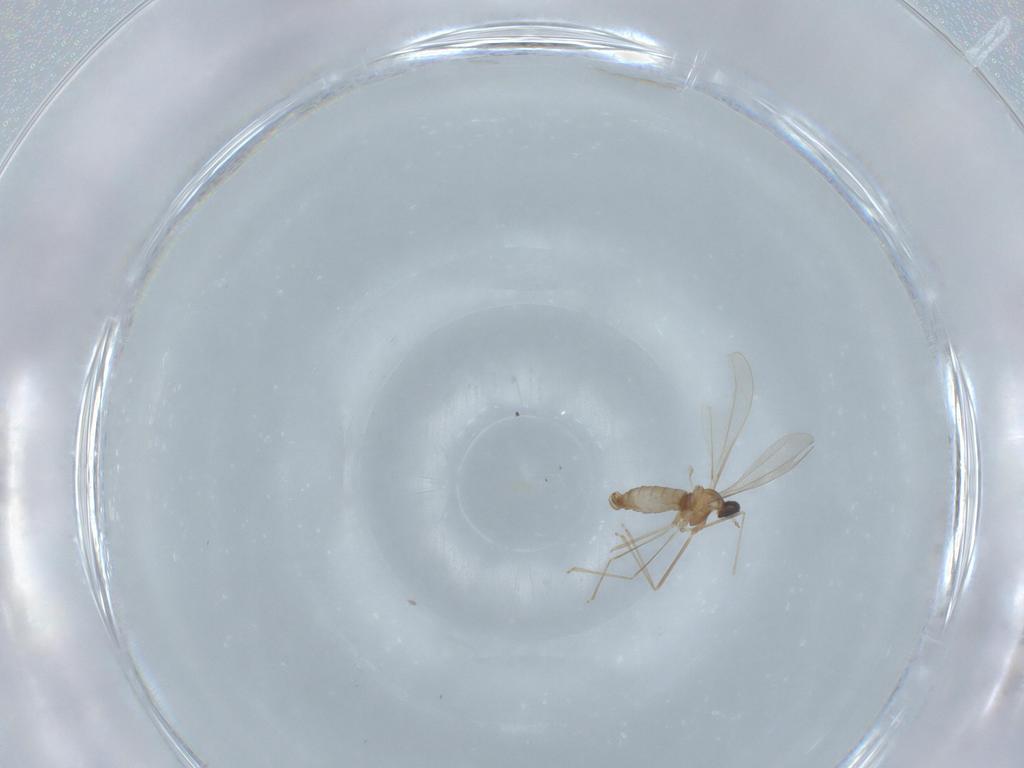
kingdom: Animalia
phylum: Arthropoda
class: Insecta
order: Diptera
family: Cecidomyiidae
